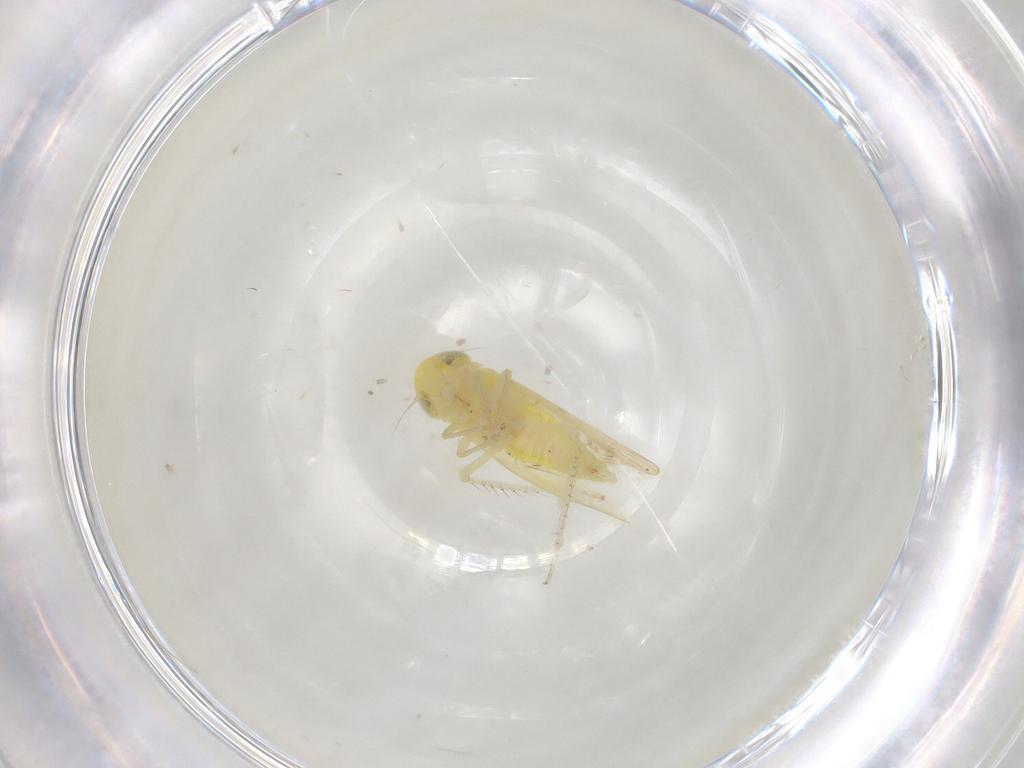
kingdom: Animalia
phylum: Arthropoda
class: Insecta
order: Hemiptera
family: Cicadellidae
